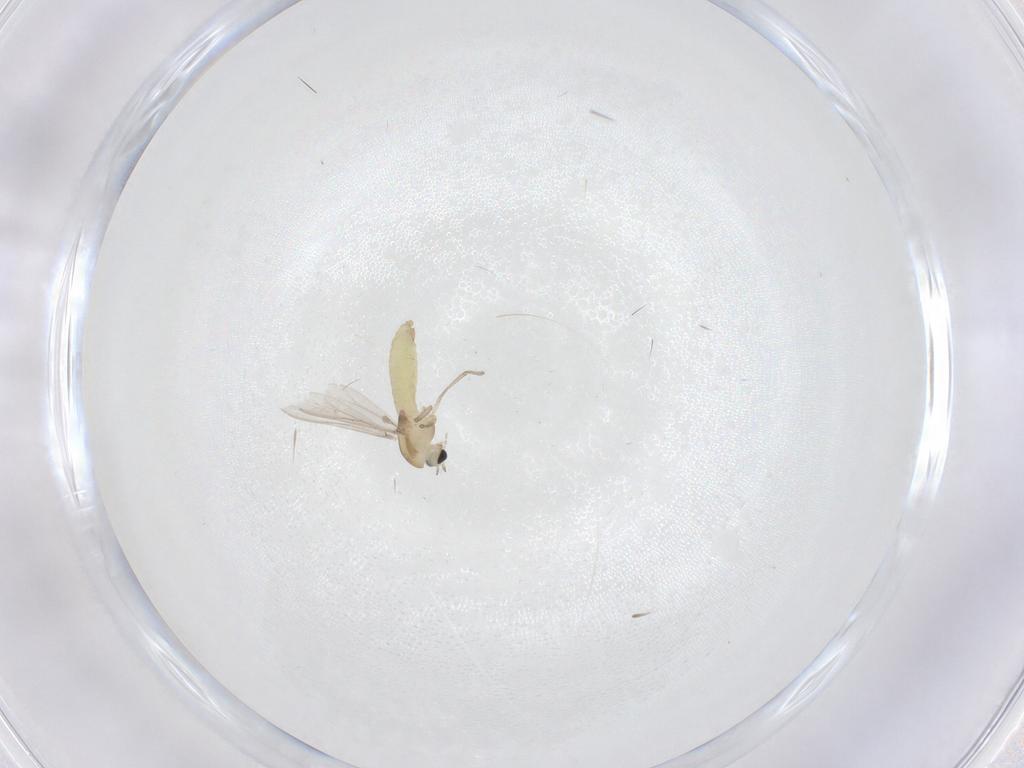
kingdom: Animalia
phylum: Arthropoda
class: Insecta
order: Diptera
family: Chironomidae
